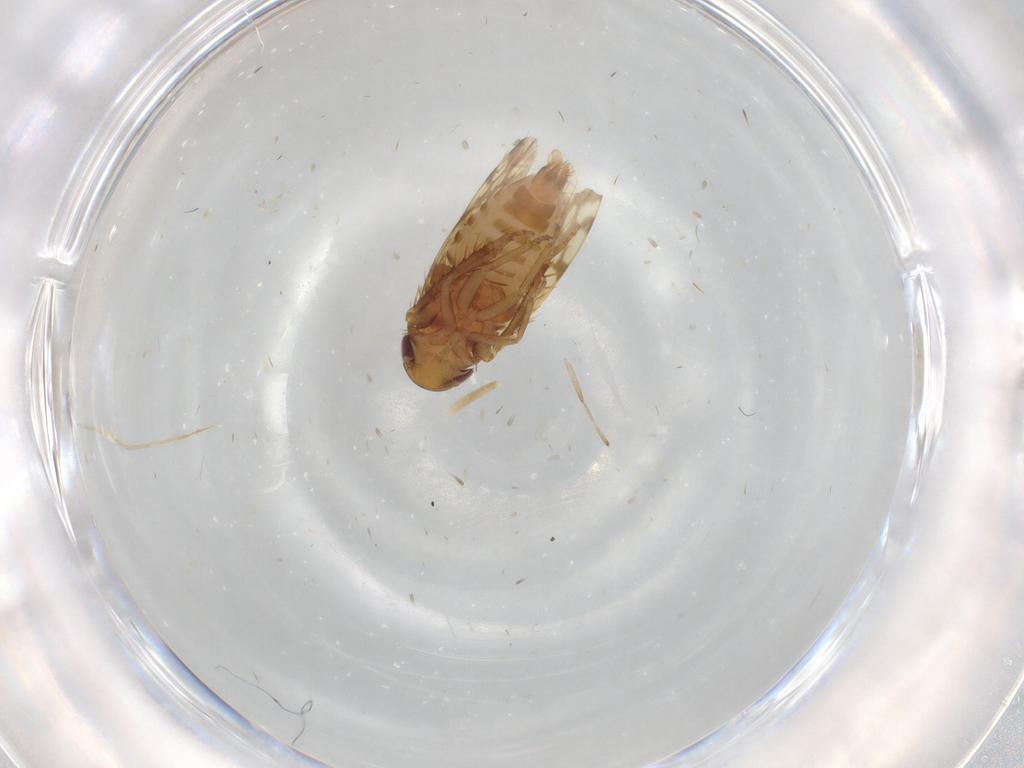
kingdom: Animalia
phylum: Arthropoda
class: Insecta
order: Hemiptera
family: Cicadellidae
